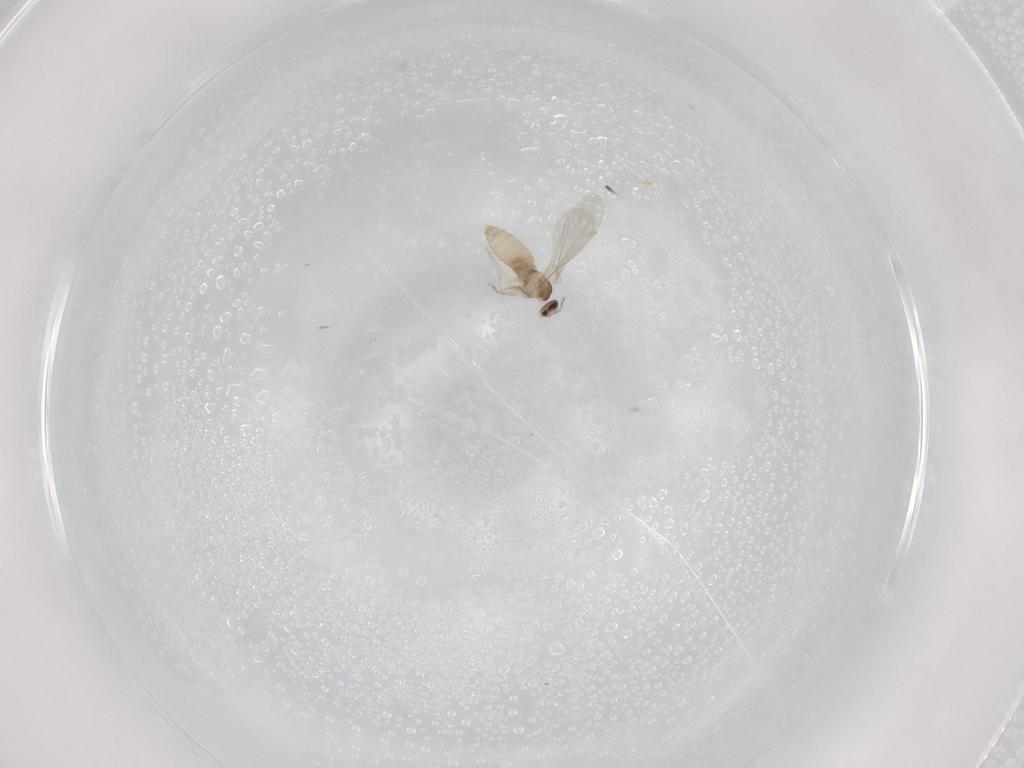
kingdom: Animalia
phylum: Arthropoda
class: Insecta
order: Diptera
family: Cecidomyiidae
